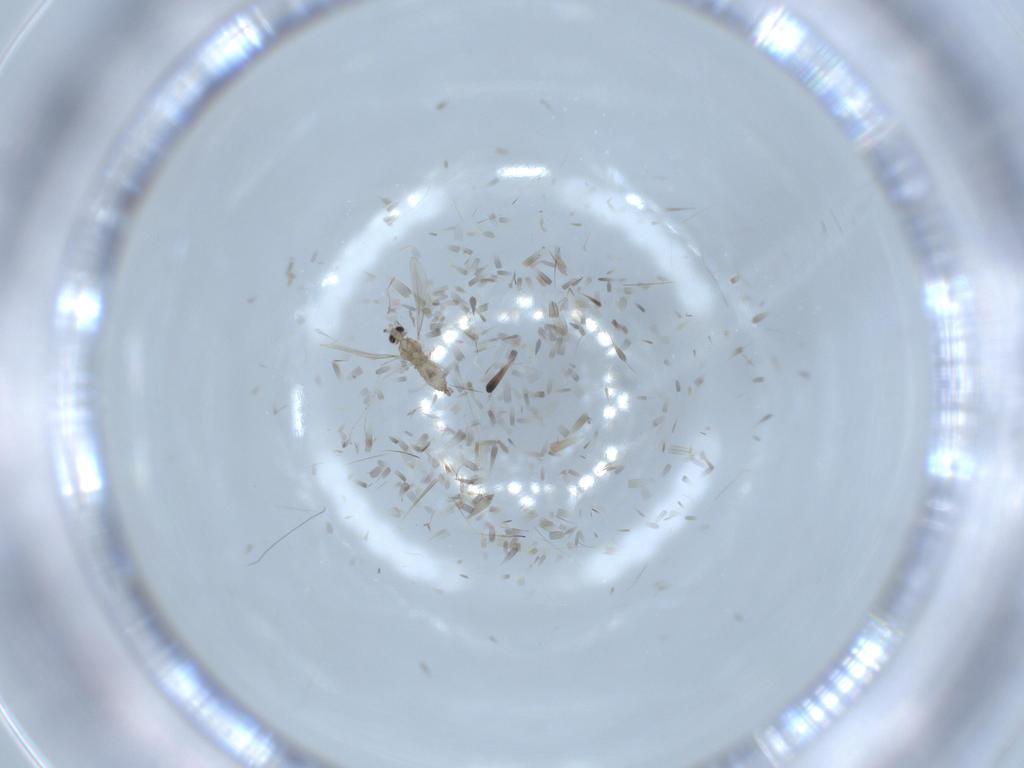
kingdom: Animalia
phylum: Arthropoda
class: Insecta
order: Diptera
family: Cecidomyiidae
